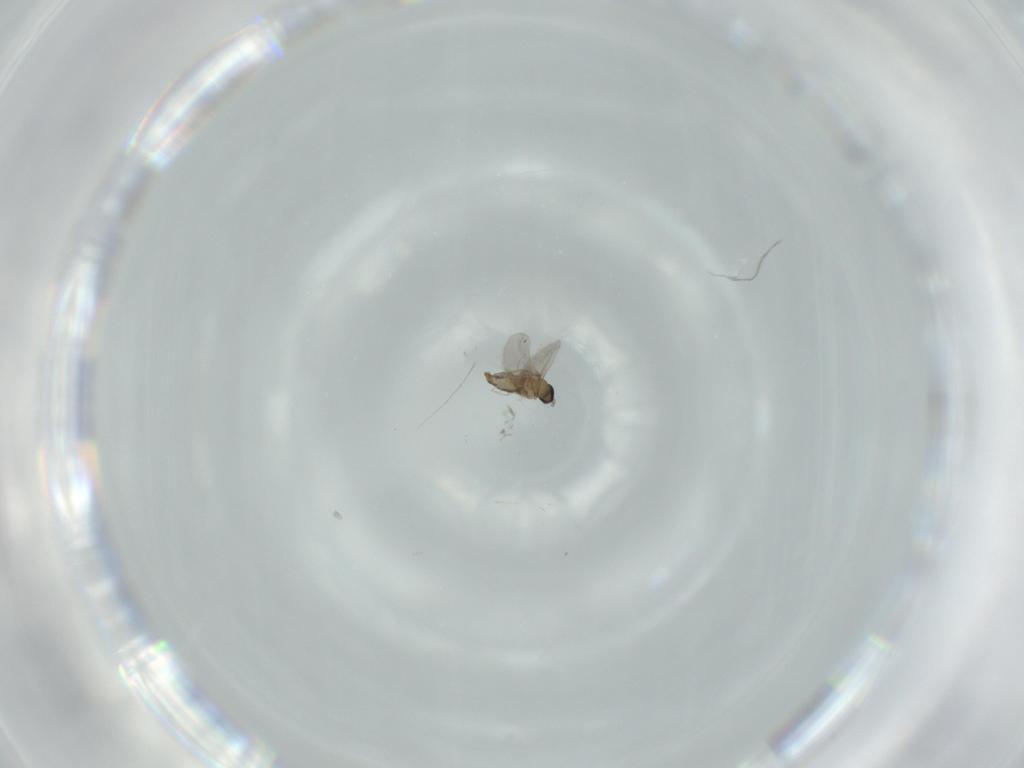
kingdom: Animalia
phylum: Arthropoda
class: Insecta
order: Diptera
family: Cecidomyiidae
